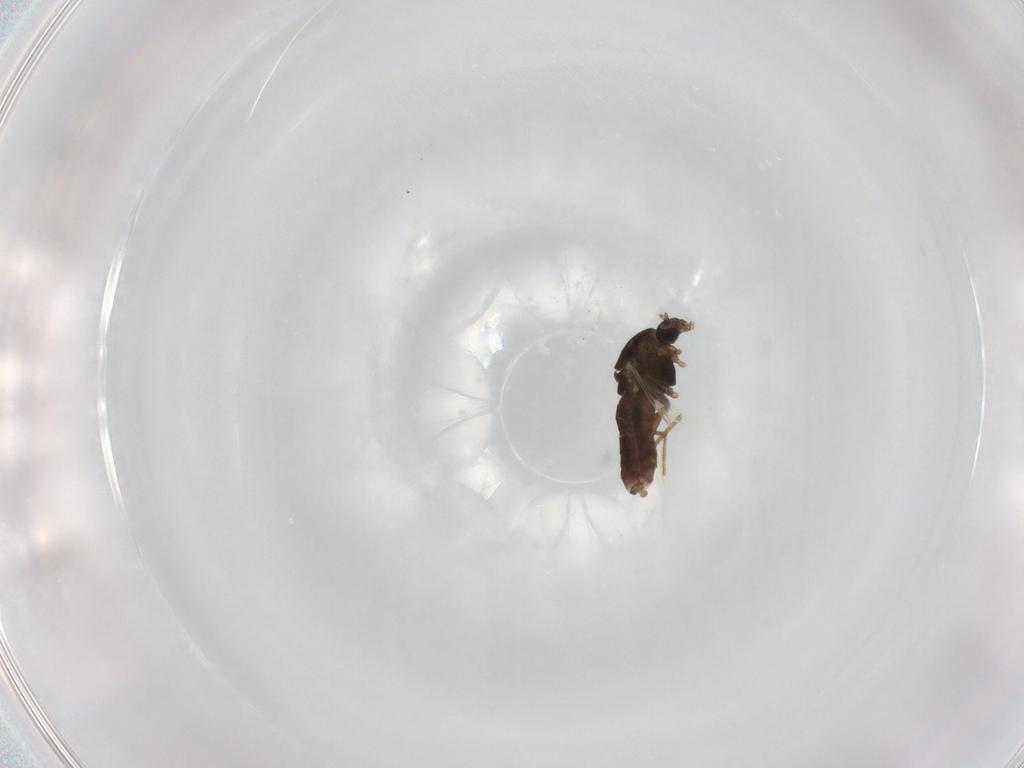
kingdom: Animalia
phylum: Arthropoda
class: Insecta
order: Diptera
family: Chironomidae
